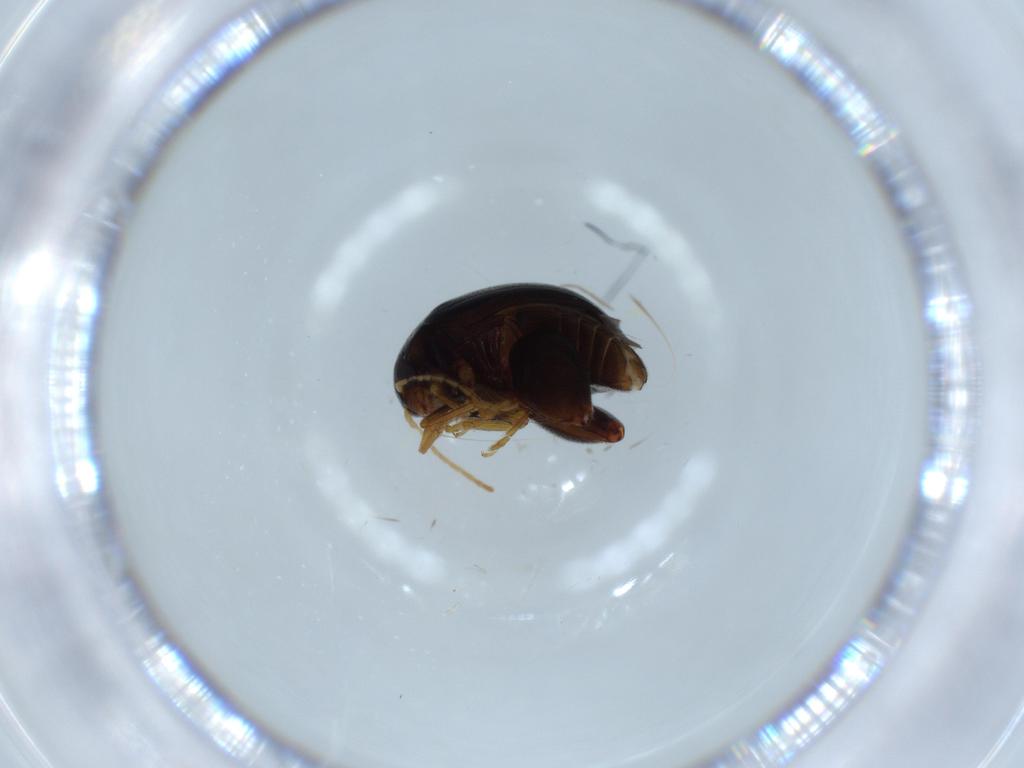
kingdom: Animalia
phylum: Arthropoda
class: Insecta
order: Coleoptera
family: Chrysomelidae
